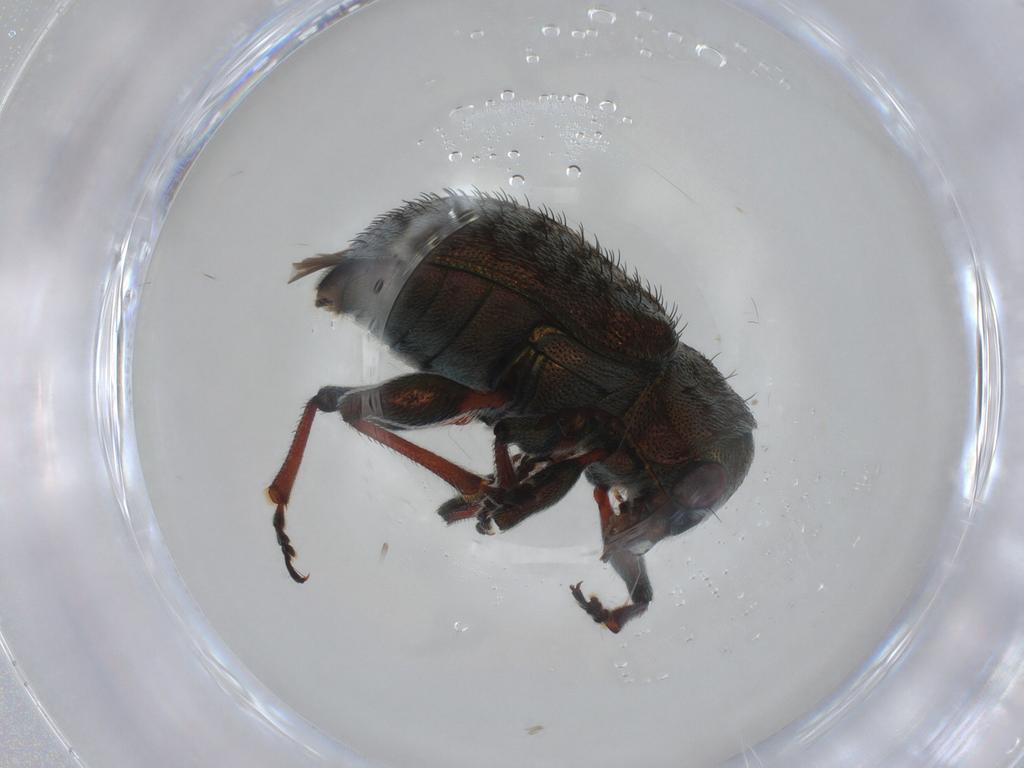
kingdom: Animalia
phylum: Arthropoda
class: Insecta
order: Coleoptera
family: Chrysomelidae
